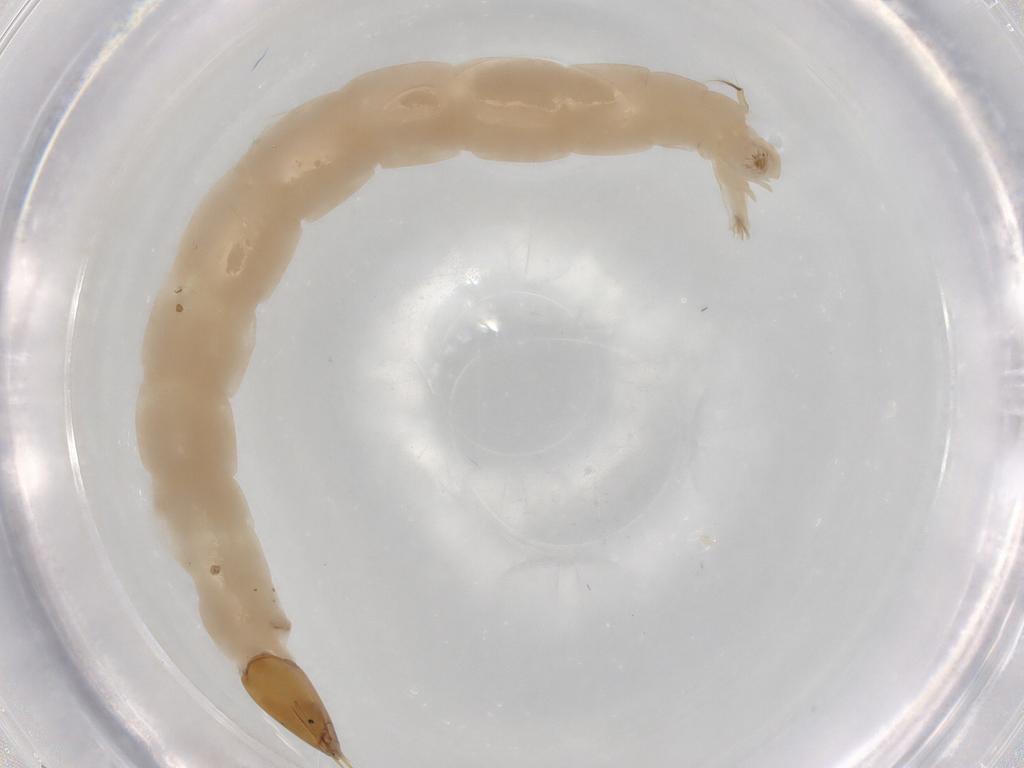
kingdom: Animalia
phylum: Arthropoda
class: Insecta
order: Diptera
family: Chironomidae
